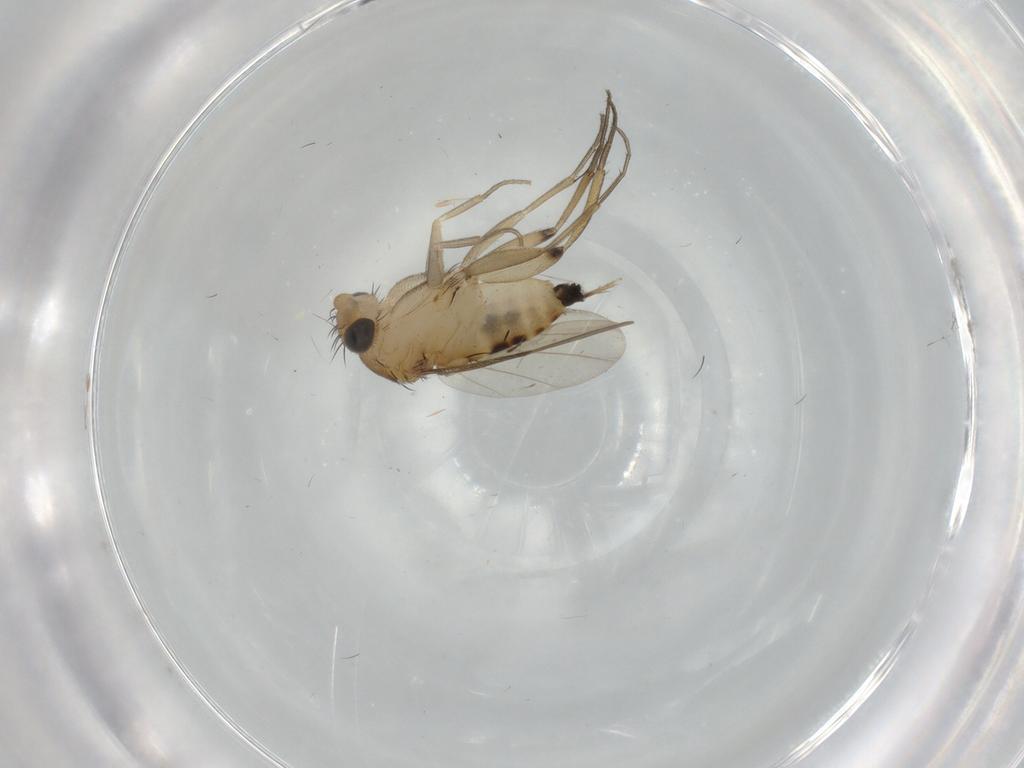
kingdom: Animalia
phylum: Arthropoda
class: Insecta
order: Diptera
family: Phoridae
